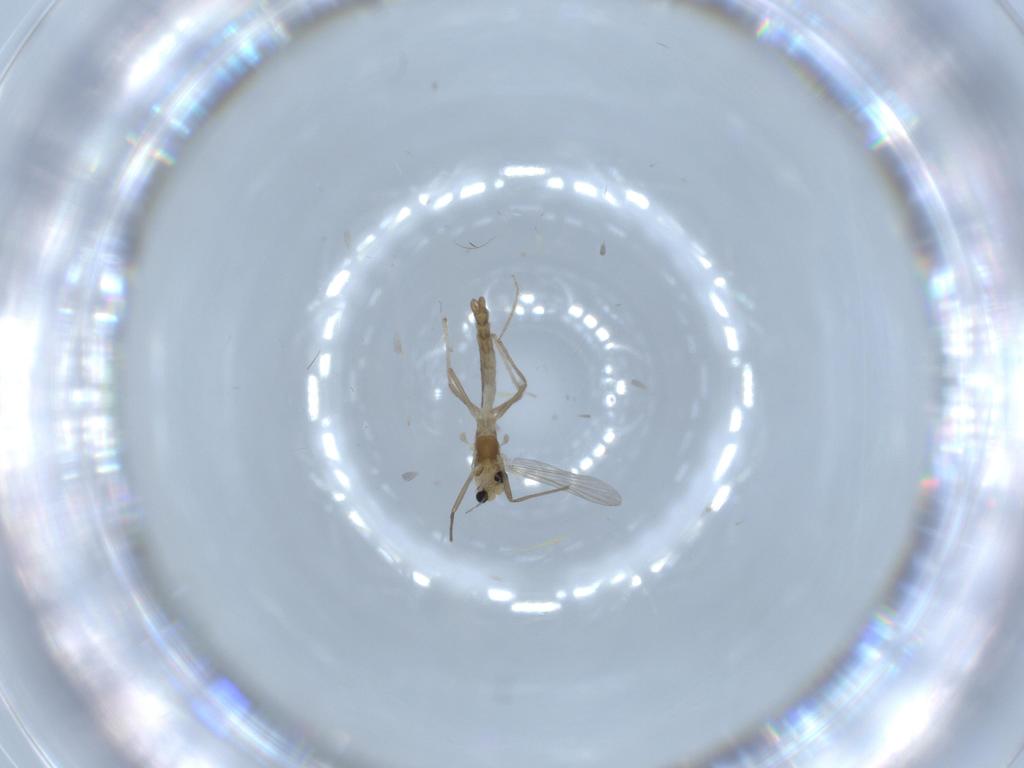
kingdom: Animalia
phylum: Arthropoda
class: Insecta
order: Diptera
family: Chironomidae
